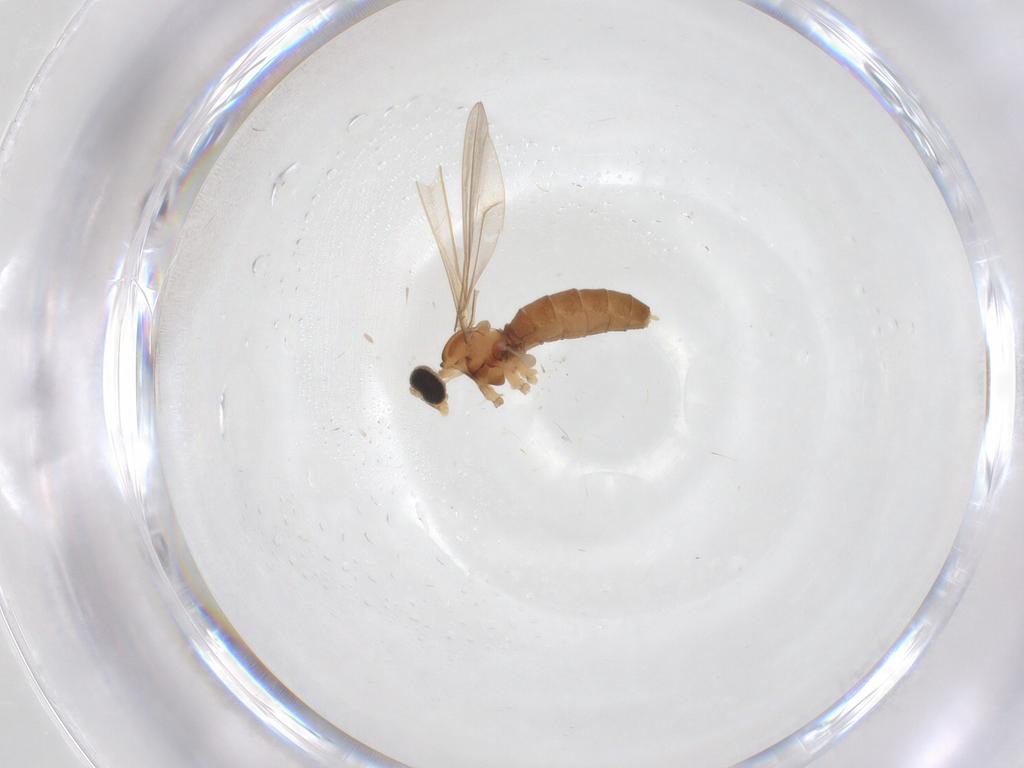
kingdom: Animalia
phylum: Arthropoda
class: Insecta
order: Diptera
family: Cecidomyiidae
